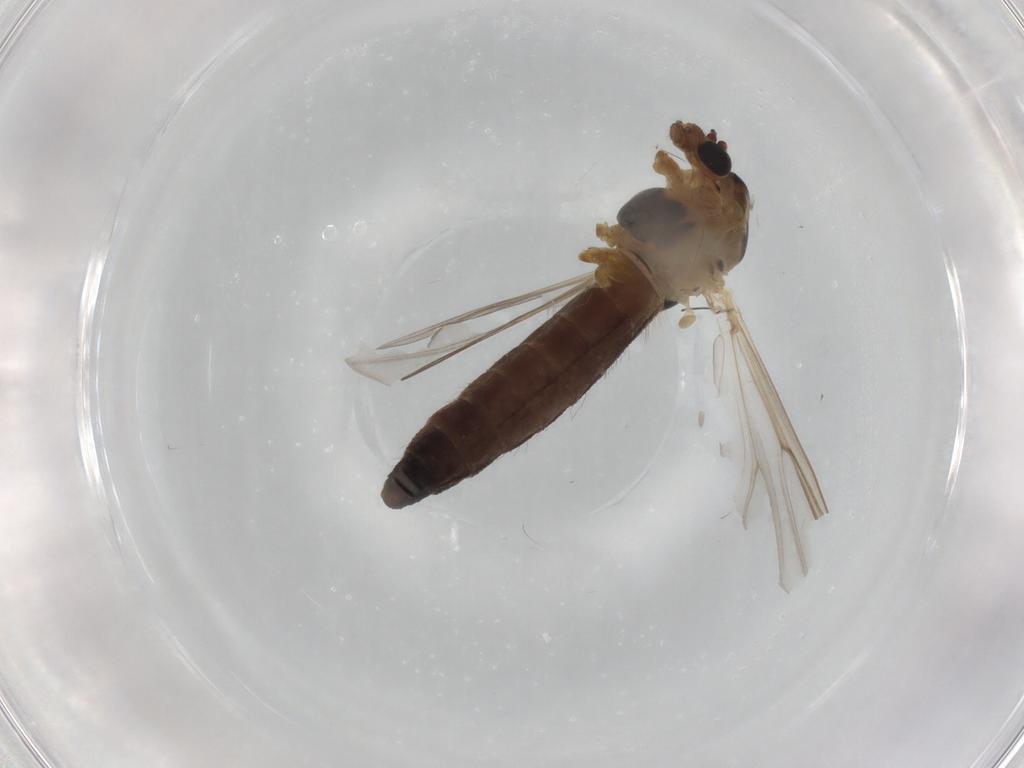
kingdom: Animalia
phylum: Arthropoda
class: Insecta
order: Diptera
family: Chironomidae
